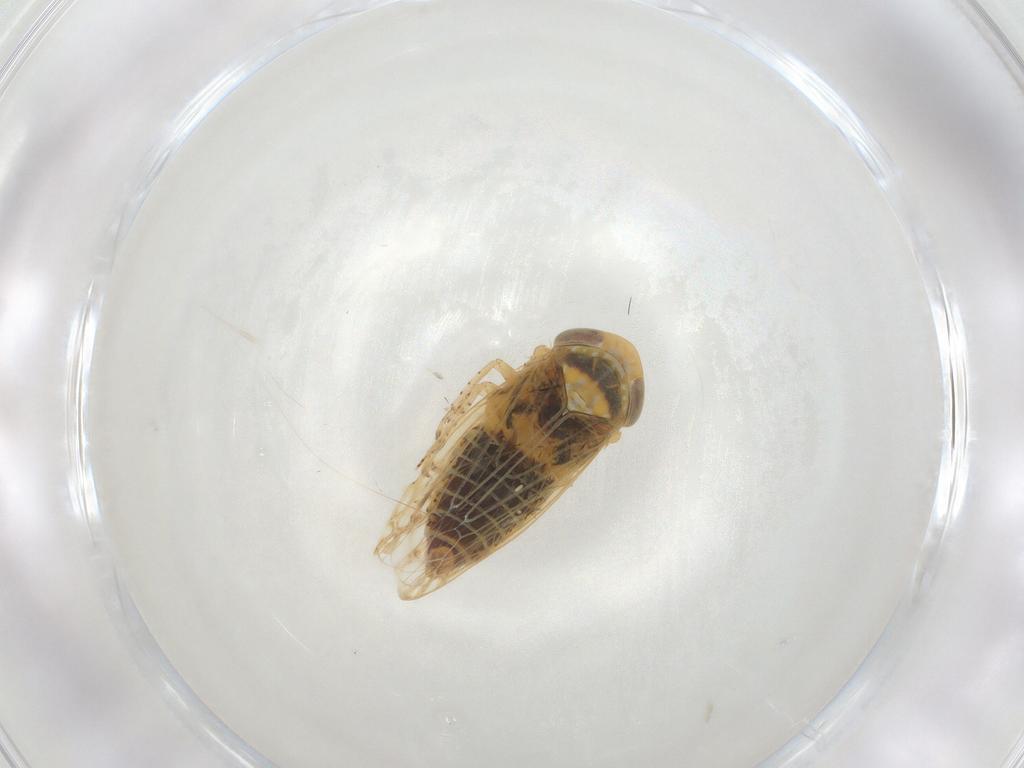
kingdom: Animalia
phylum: Arthropoda
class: Insecta
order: Hemiptera
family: Cicadellidae
